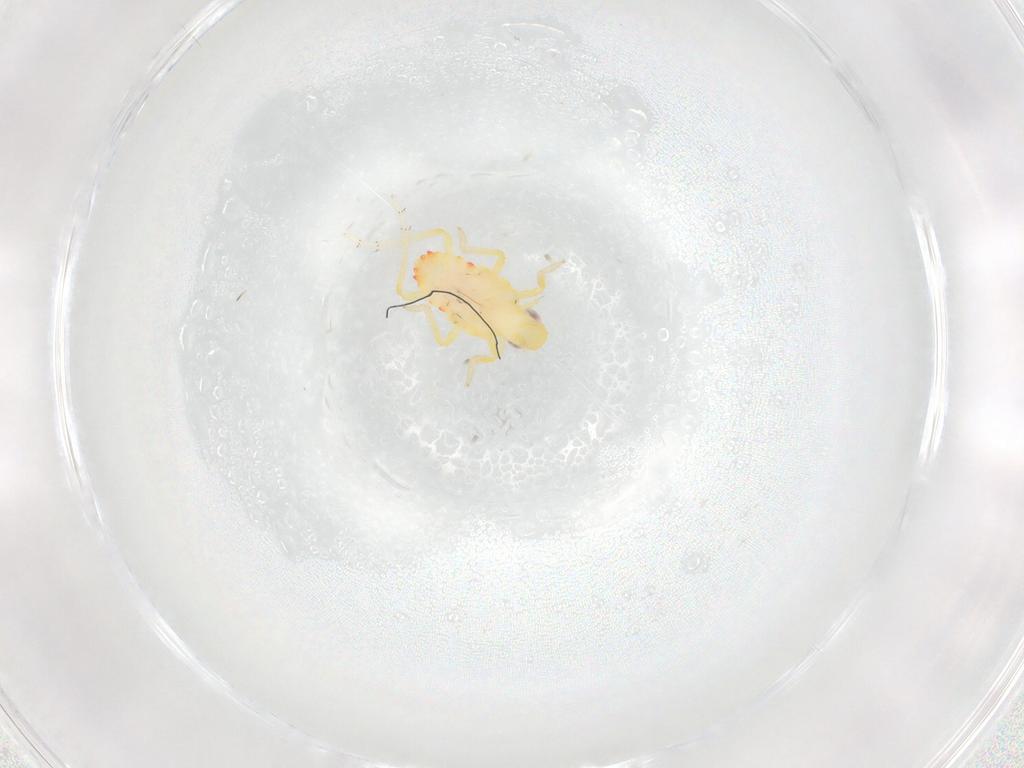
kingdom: Animalia
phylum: Arthropoda
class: Insecta
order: Hemiptera
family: Tropiduchidae
